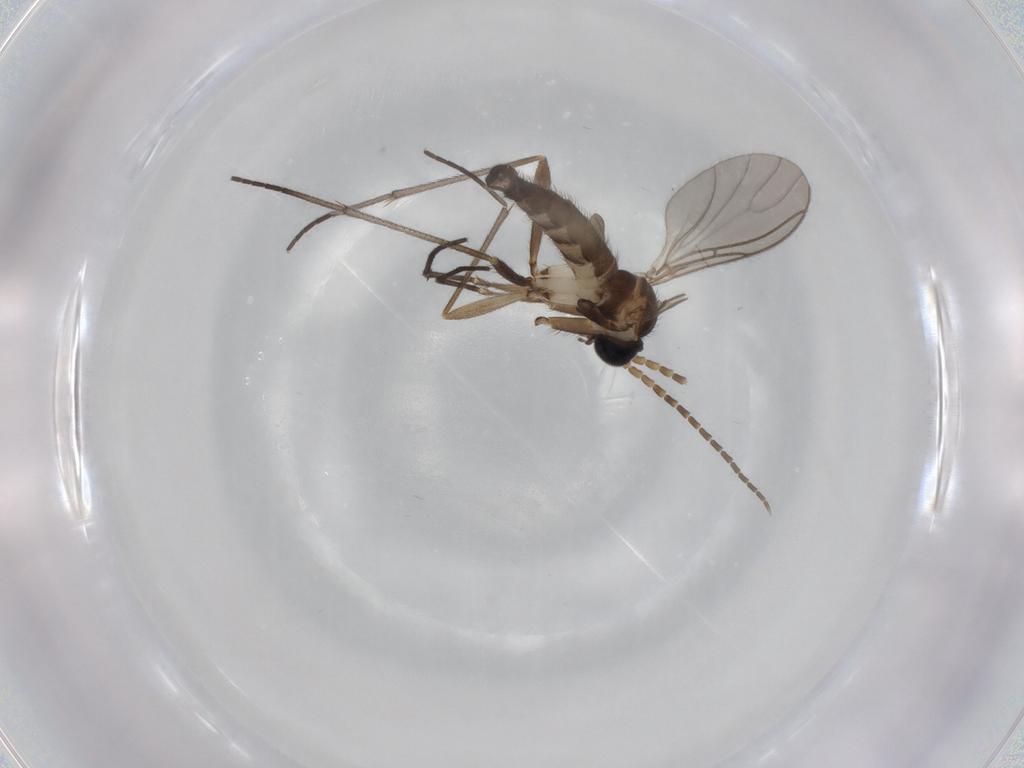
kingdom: Animalia
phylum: Arthropoda
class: Insecta
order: Diptera
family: Sciaridae
